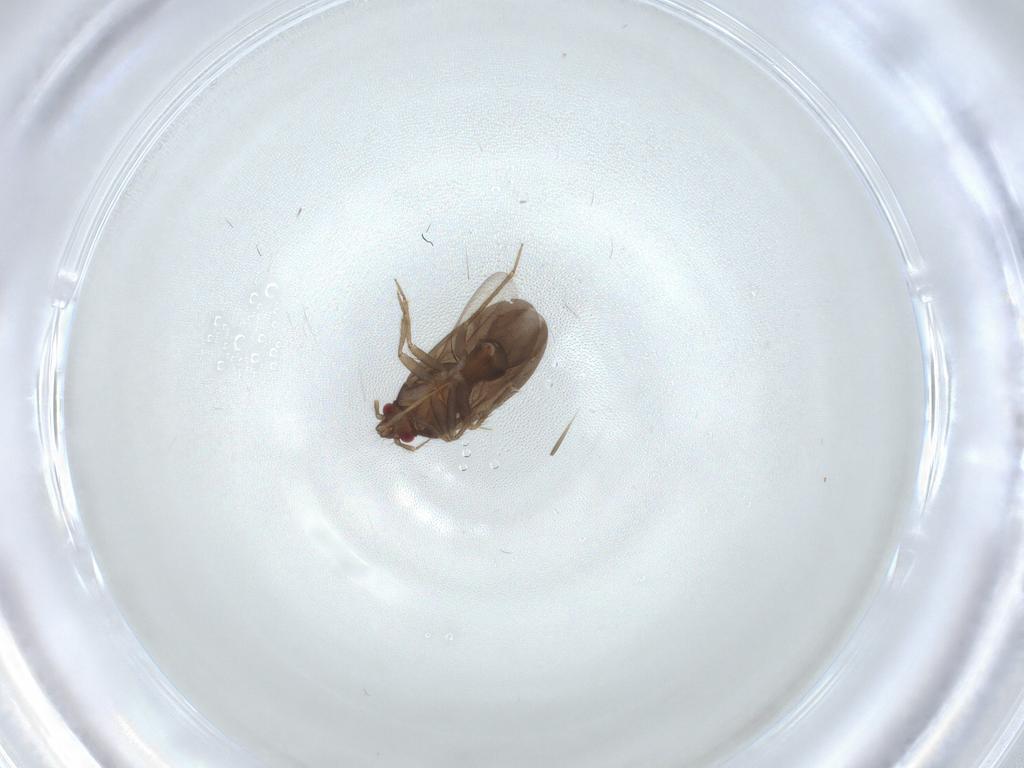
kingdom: Animalia
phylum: Arthropoda
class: Insecta
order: Hemiptera
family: Ceratocombidae
